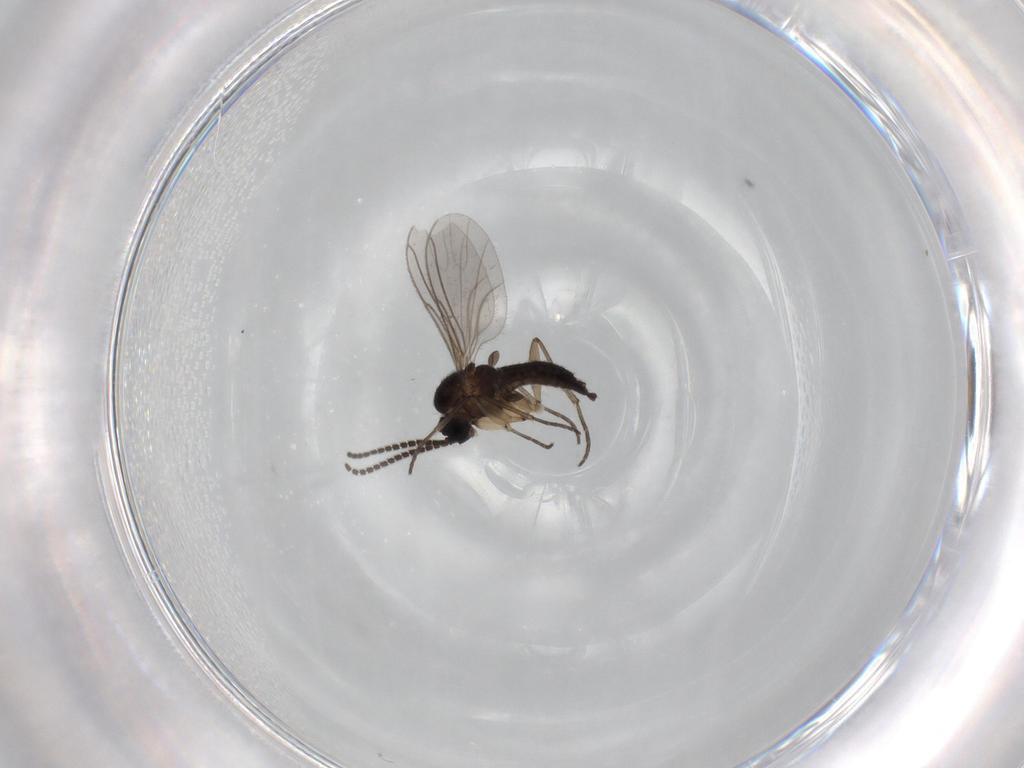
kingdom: Animalia
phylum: Arthropoda
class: Insecta
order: Diptera
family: Sciaridae
